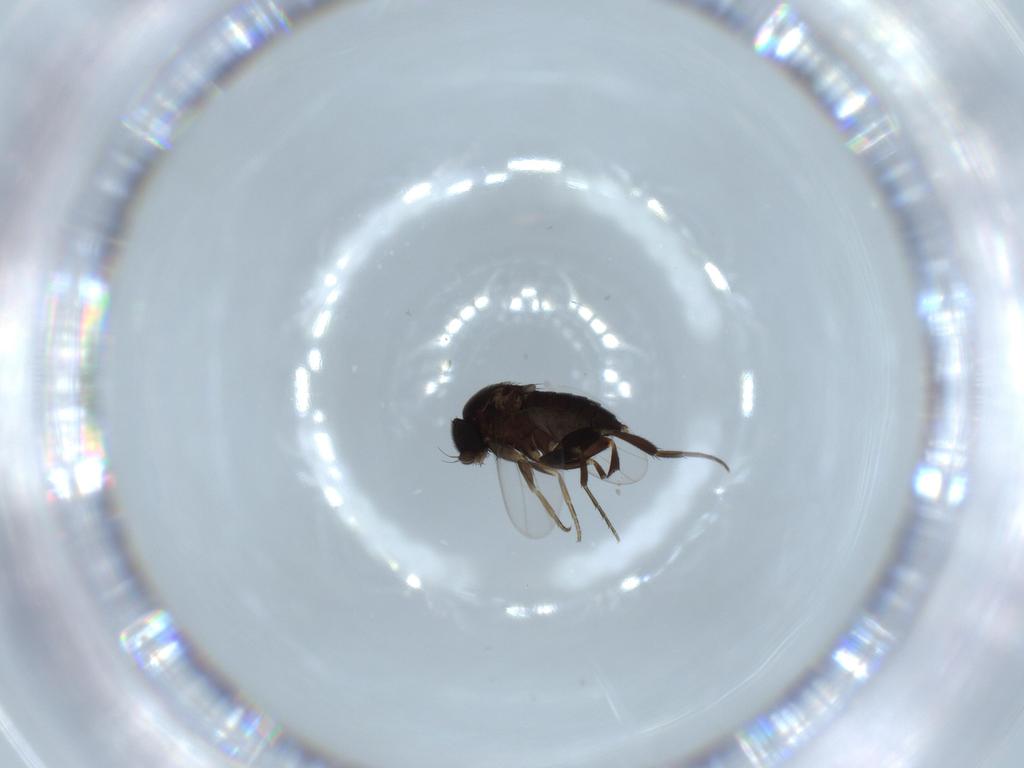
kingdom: Animalia
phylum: Arthropoda
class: Insecta
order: Diptera
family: Phoridae
